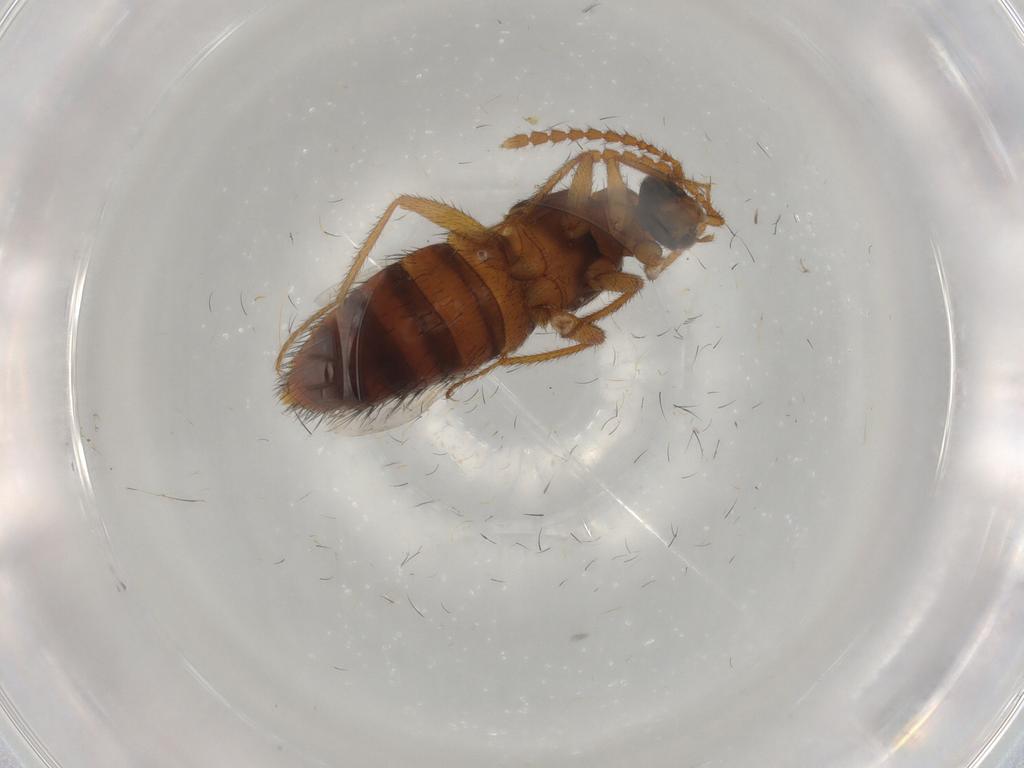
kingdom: Animalia
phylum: Arthropoda
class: Insecta
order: Coleoptera
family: Staphylinidae
